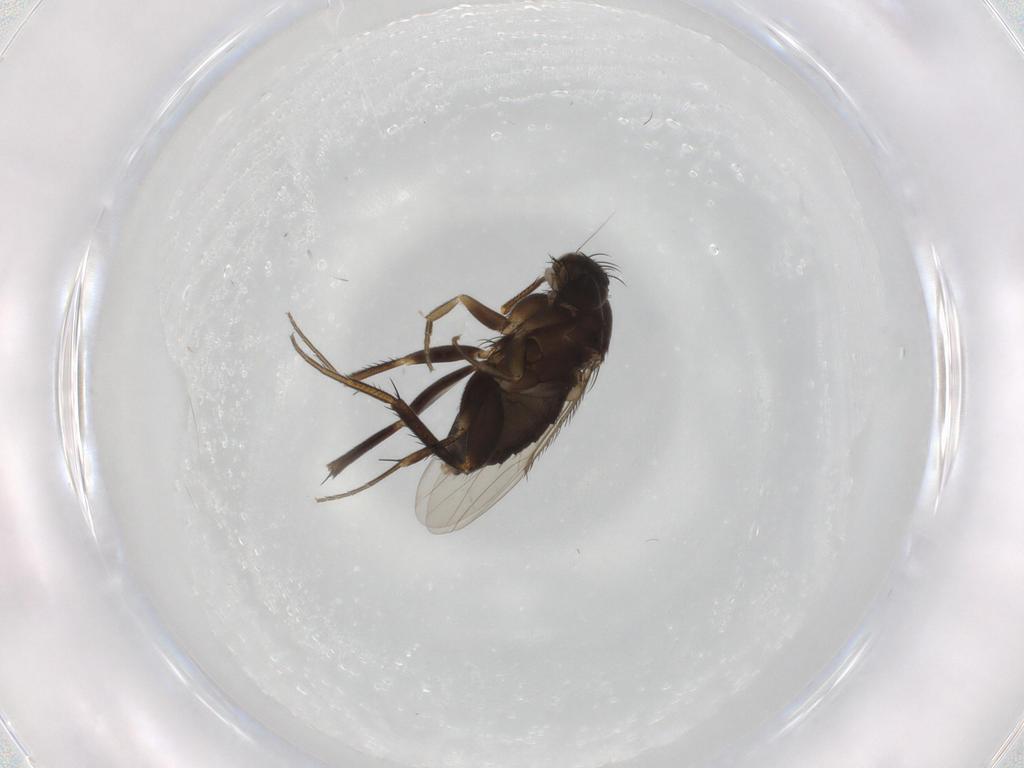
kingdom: Animalia
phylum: Arthropoda
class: Insecta
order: Diptera
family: Phoridae
